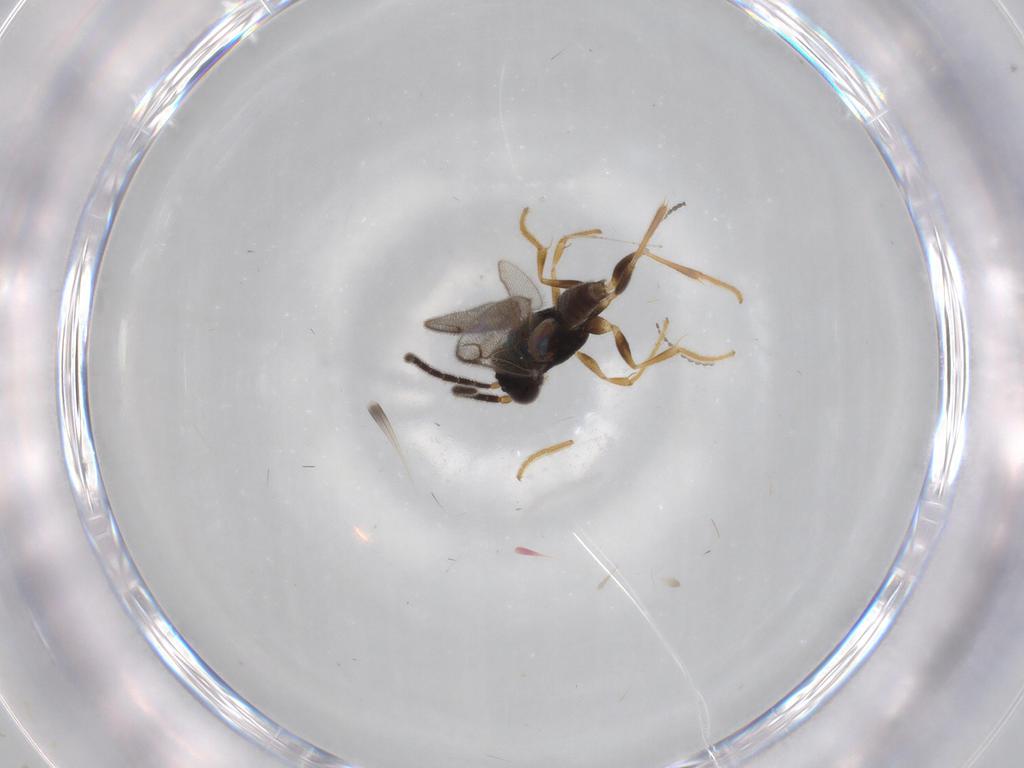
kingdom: Animalia
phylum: Arthropoda
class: Insecta
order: Hymenoptera
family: Dryinidae
